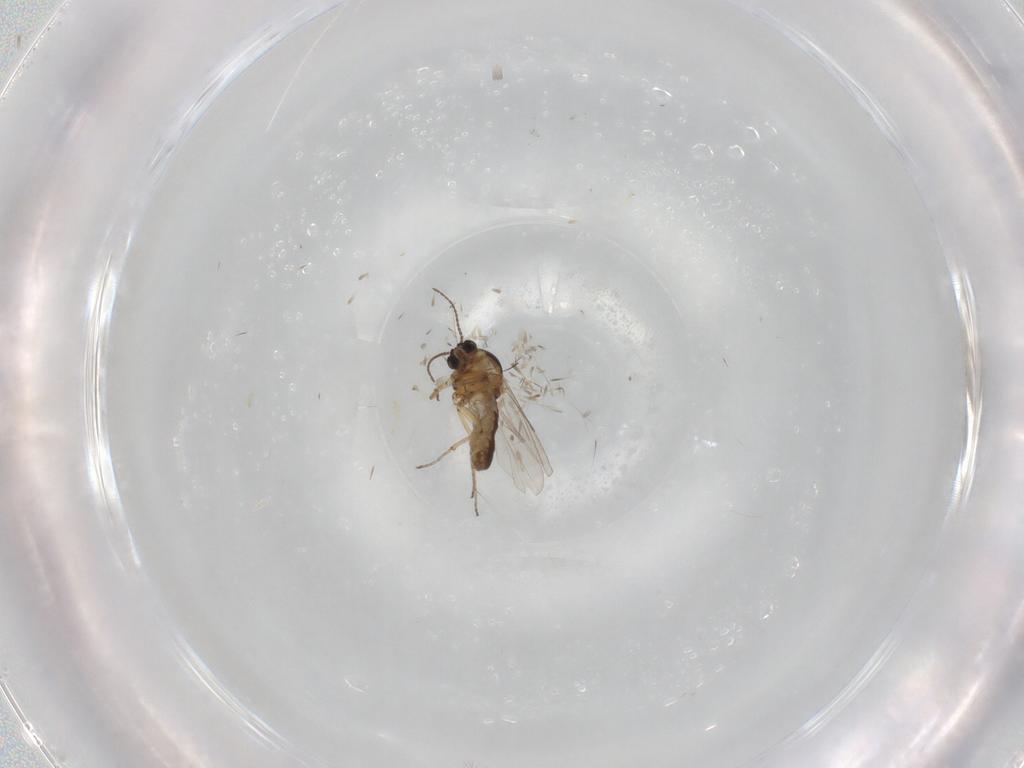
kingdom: Animalia
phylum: Arthropoda
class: Insecta
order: Diptera
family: Ceratopogonidae
